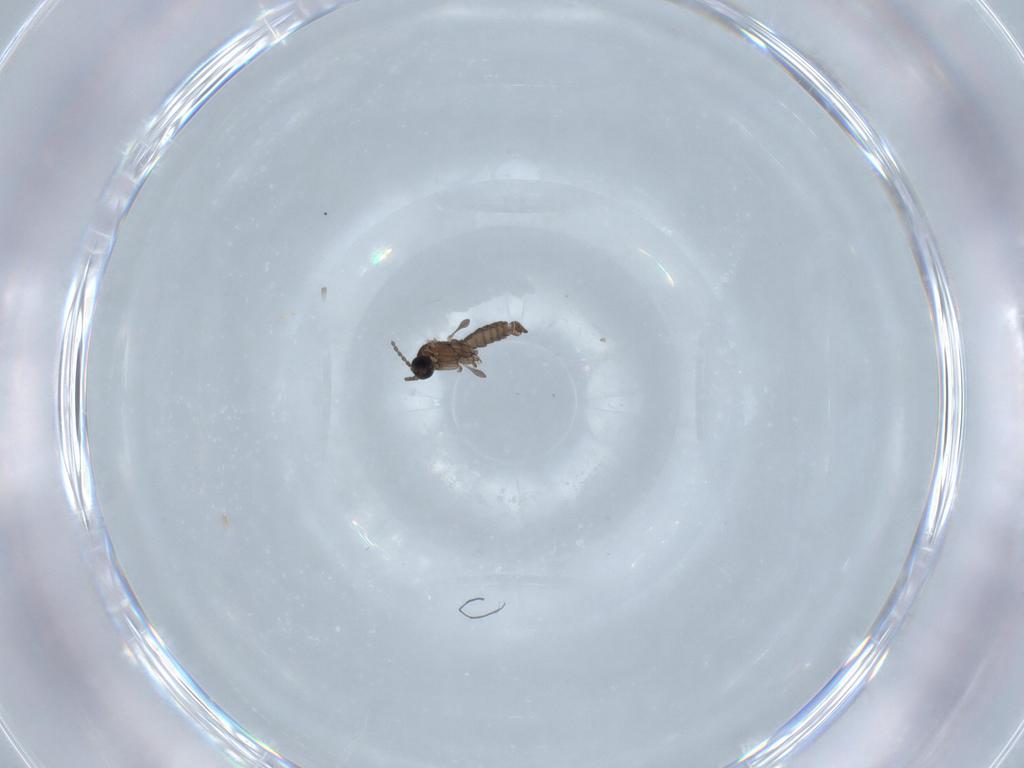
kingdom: Animalia
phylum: Arthropoda
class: Insecta
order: Diptera
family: Sciaridae
